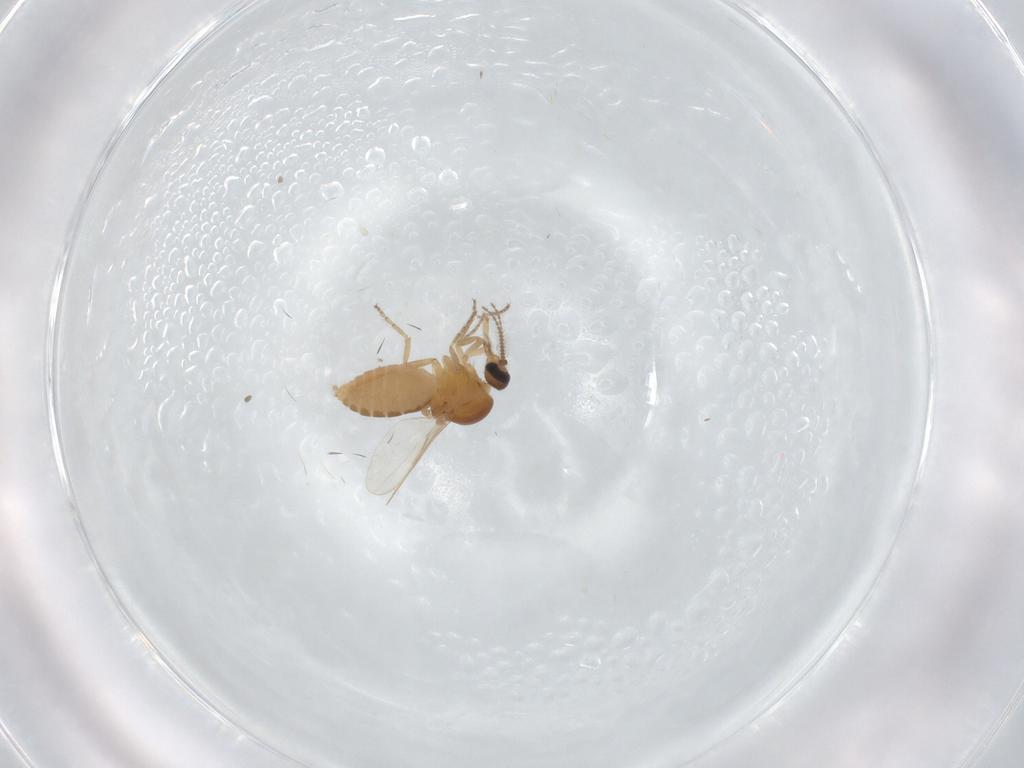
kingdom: Animalia
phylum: Arthropoda
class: Insecta
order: Diptera
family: Ceratopogonidae
